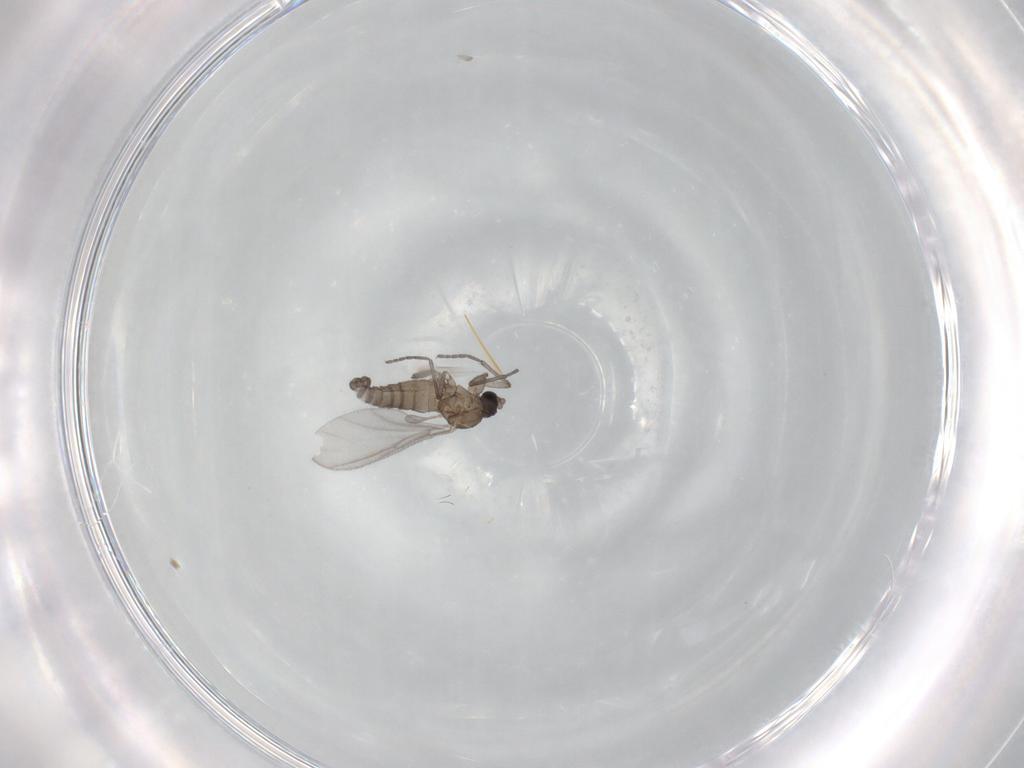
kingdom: Animalia
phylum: Arthropoda
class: Insecta
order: Diptera
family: Sciaridae
